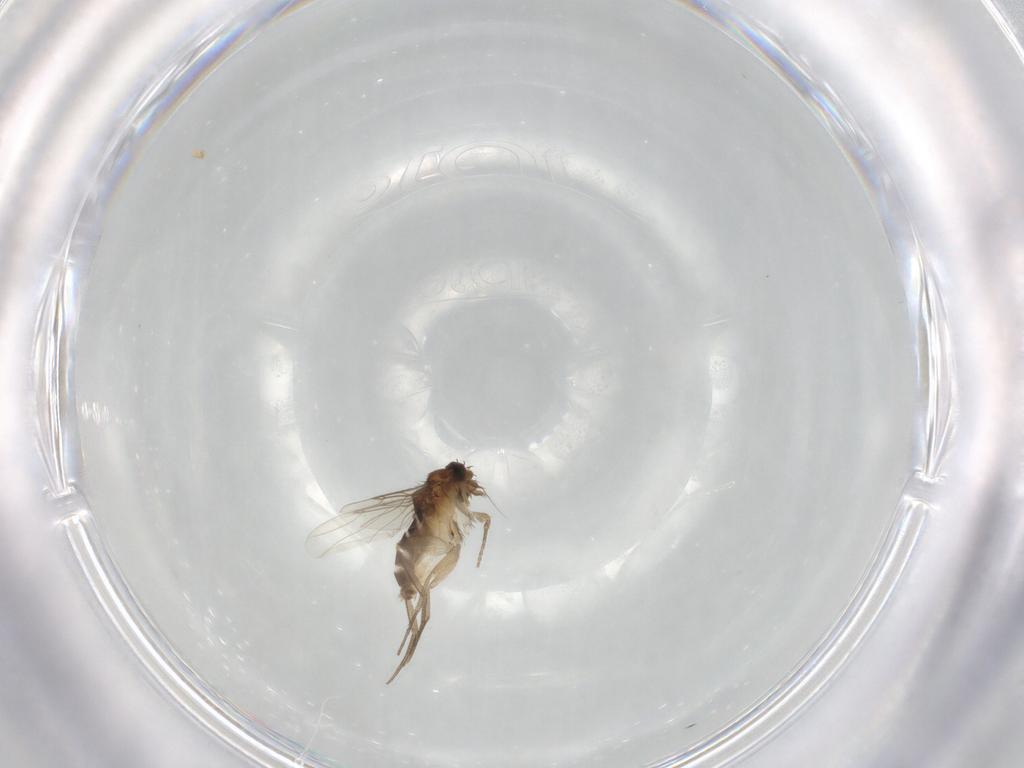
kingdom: Animalia
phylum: Arthropoda
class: Insecta
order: Diptera
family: Phoridae
